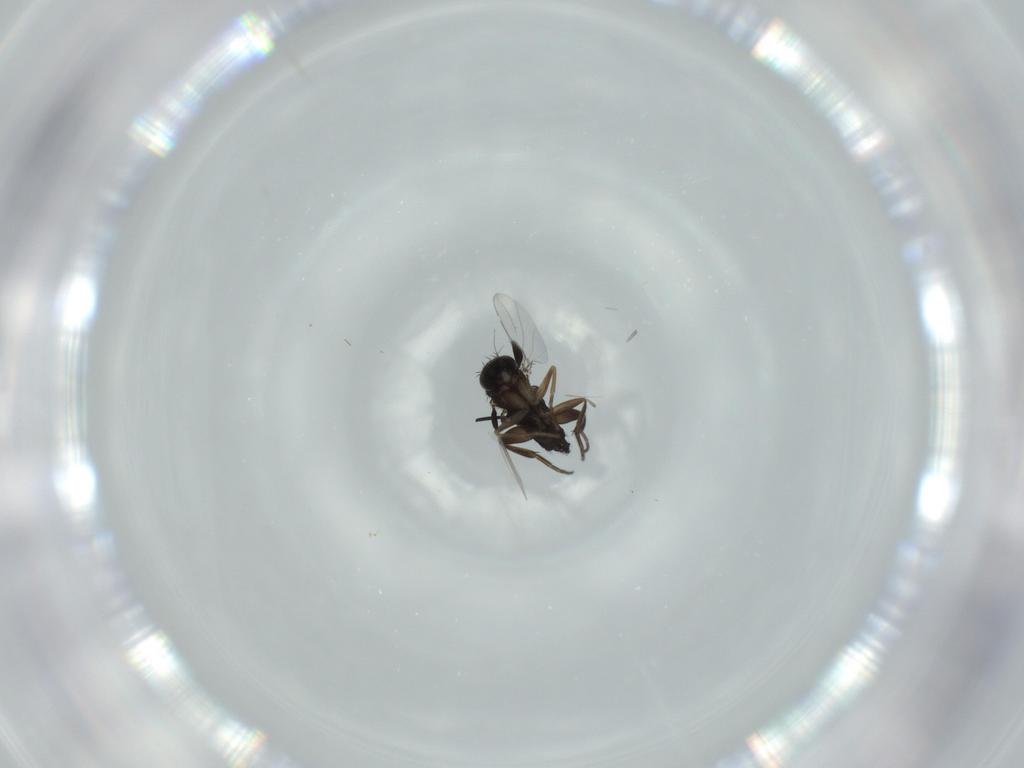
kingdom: Animalia
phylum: Arthropoda
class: Insecta
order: Diptera
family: Phoridae
